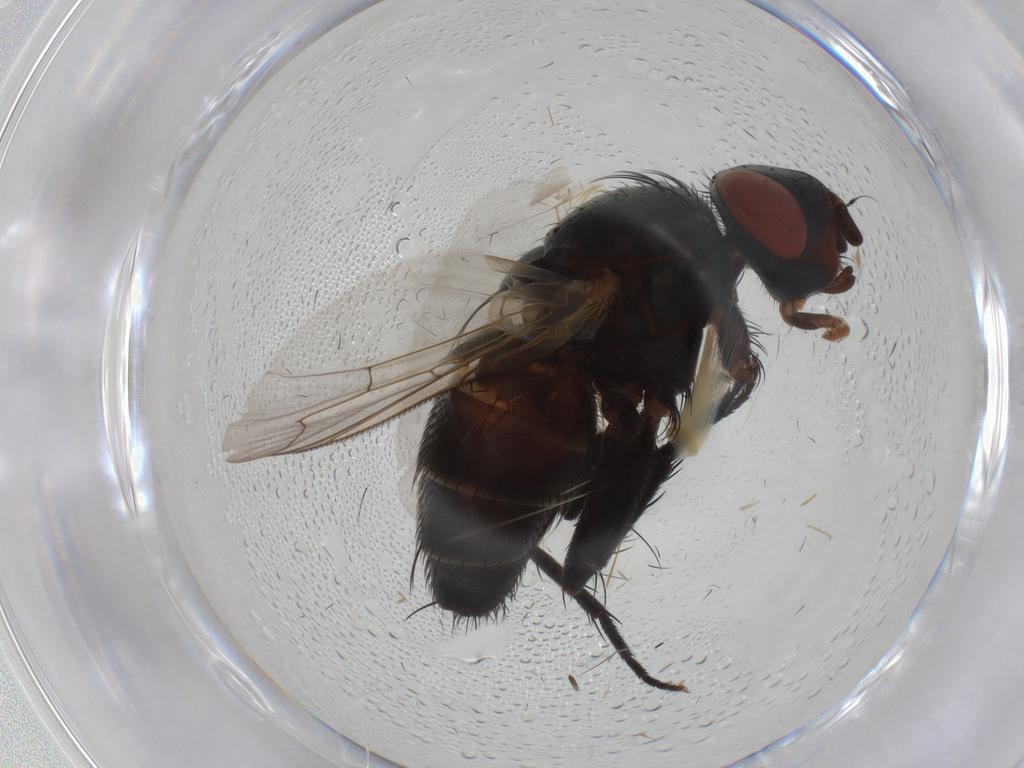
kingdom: Animalia
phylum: Arthropoda
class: Insecta
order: Diptera
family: Sarcophagidae
